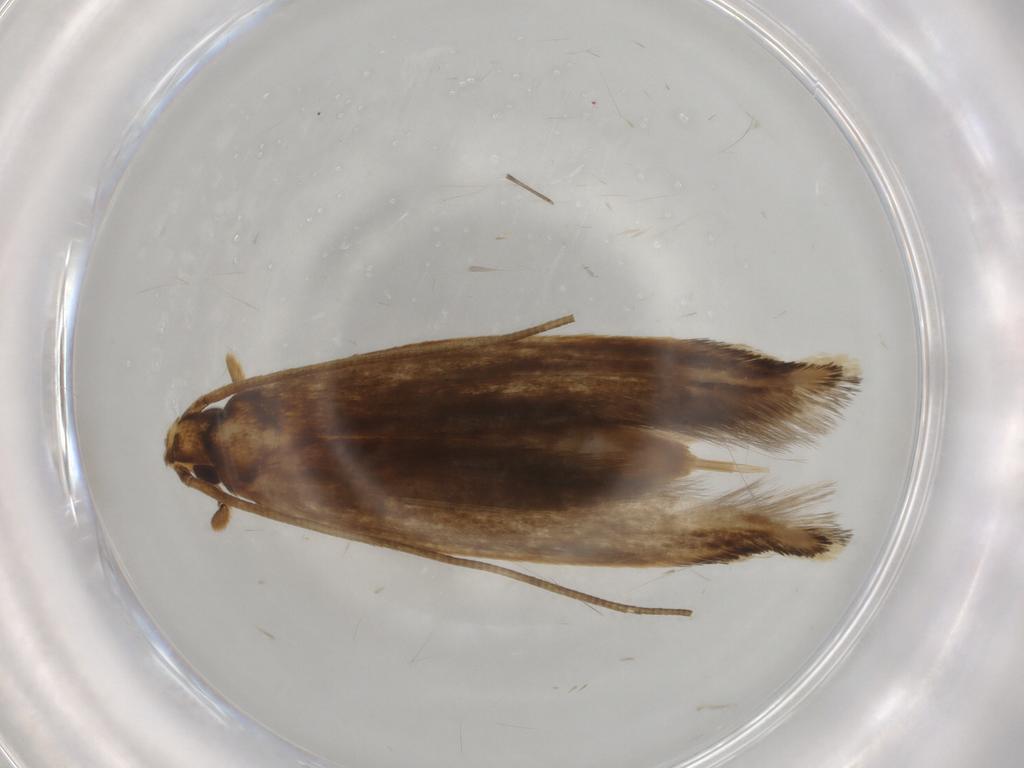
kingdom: Animalia
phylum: Arthropoda
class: Insecta
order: Lepidoptera
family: Tineidae
